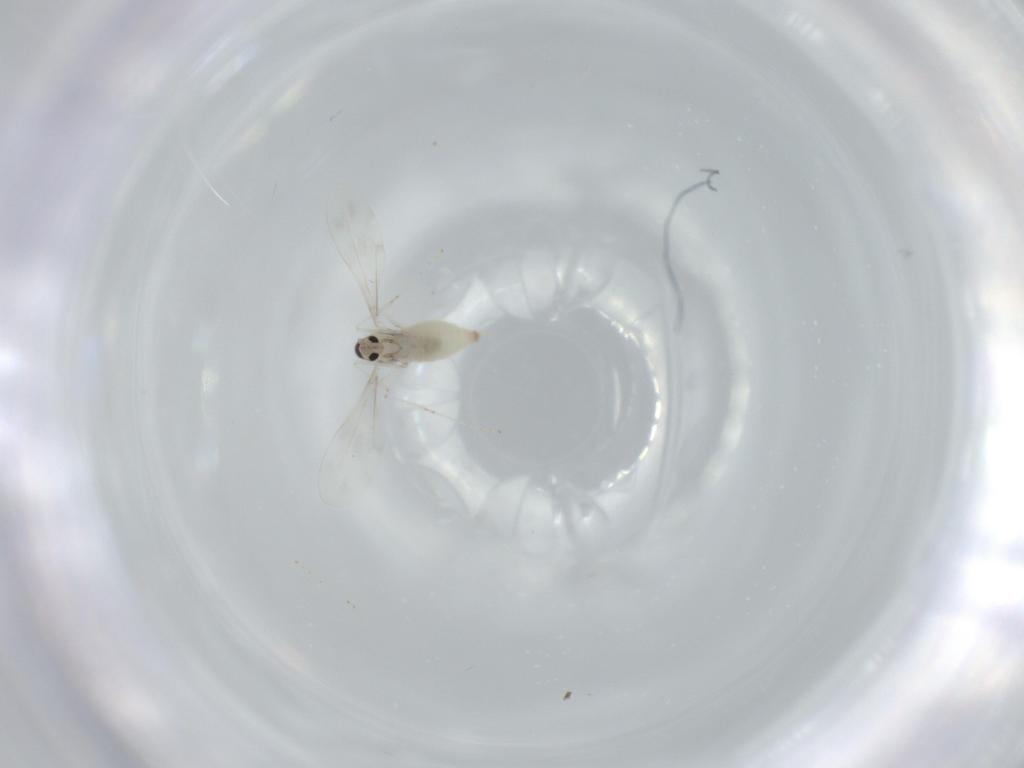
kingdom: Animalia
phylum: Arthropoda
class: Insecta
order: Diptera
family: Cecidomyiidae
